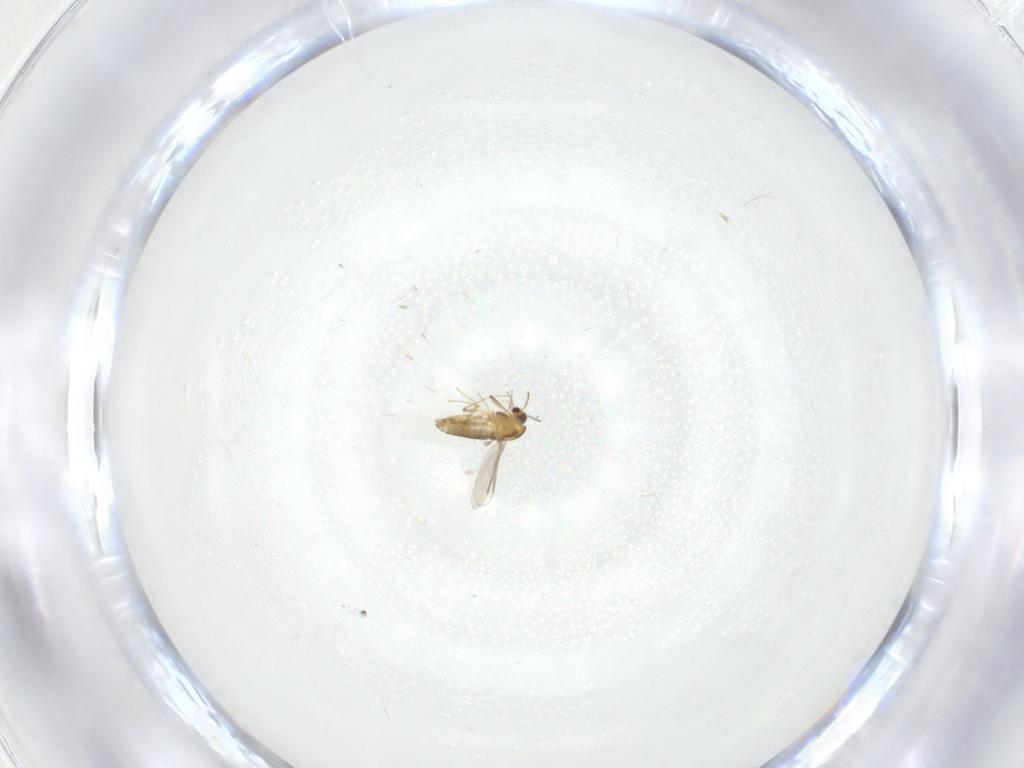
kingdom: Animalia
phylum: Arthropoda
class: Insecta
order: Diptera
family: Chironomidae
